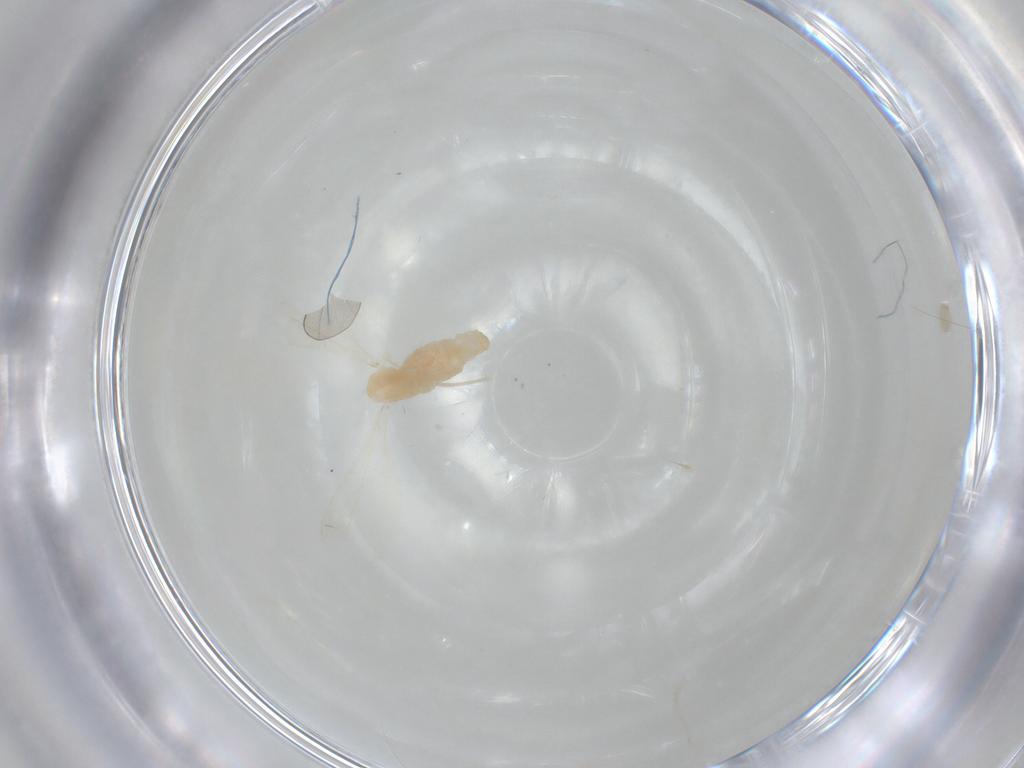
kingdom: Animalia
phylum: Arthropoda
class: Insecta
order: Diptera
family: Cecidomyiidae
